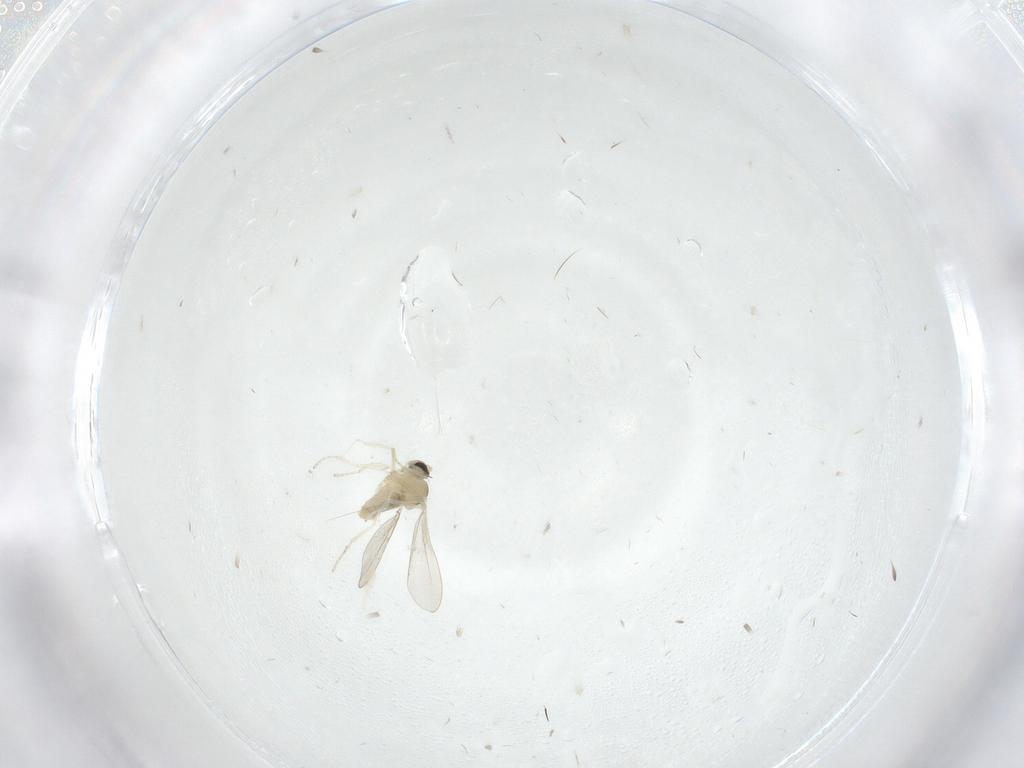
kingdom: Animalia
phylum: Arthropoda
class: Insecta
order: Diptera
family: Cecidomyiidae
